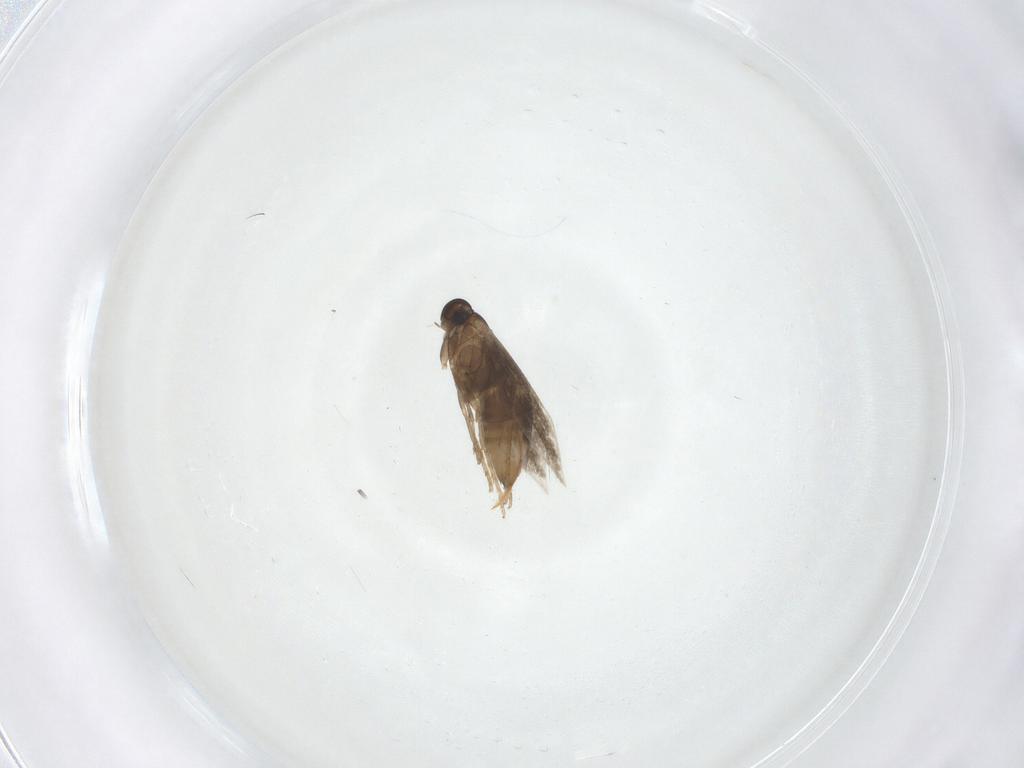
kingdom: Animalia
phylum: Arthropoda
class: Insecta
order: Lepidoptera
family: Heliozelidae
